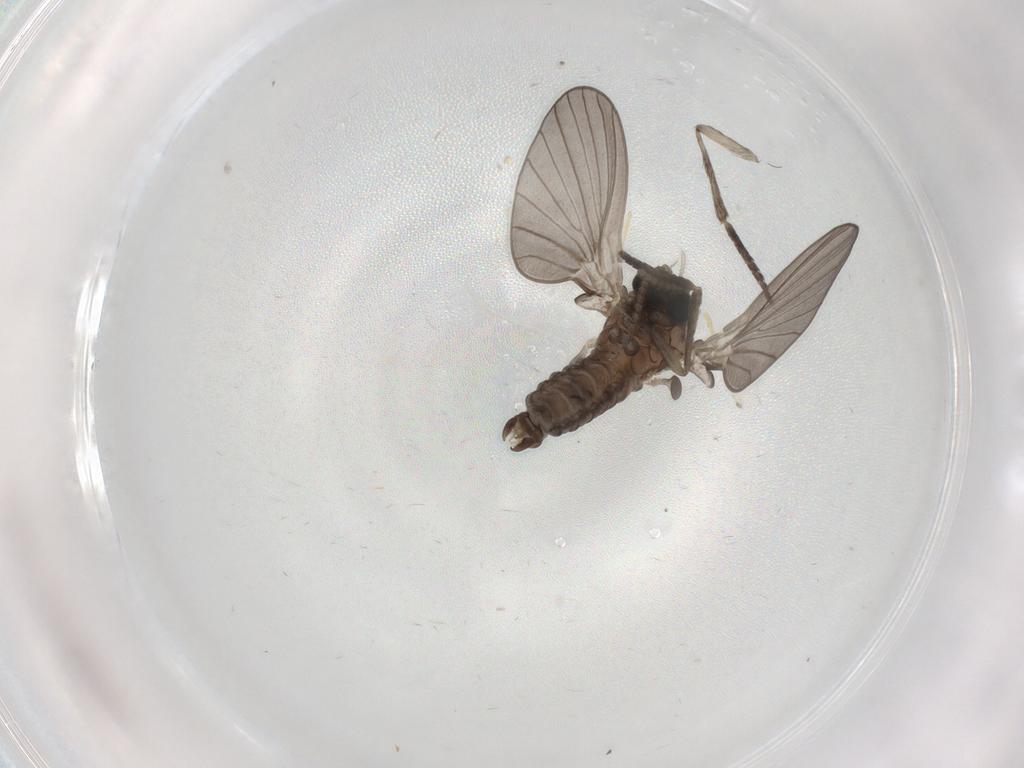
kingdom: Animalia
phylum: Arthropoda
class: Insecta
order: Diptera
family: Psychodidae
